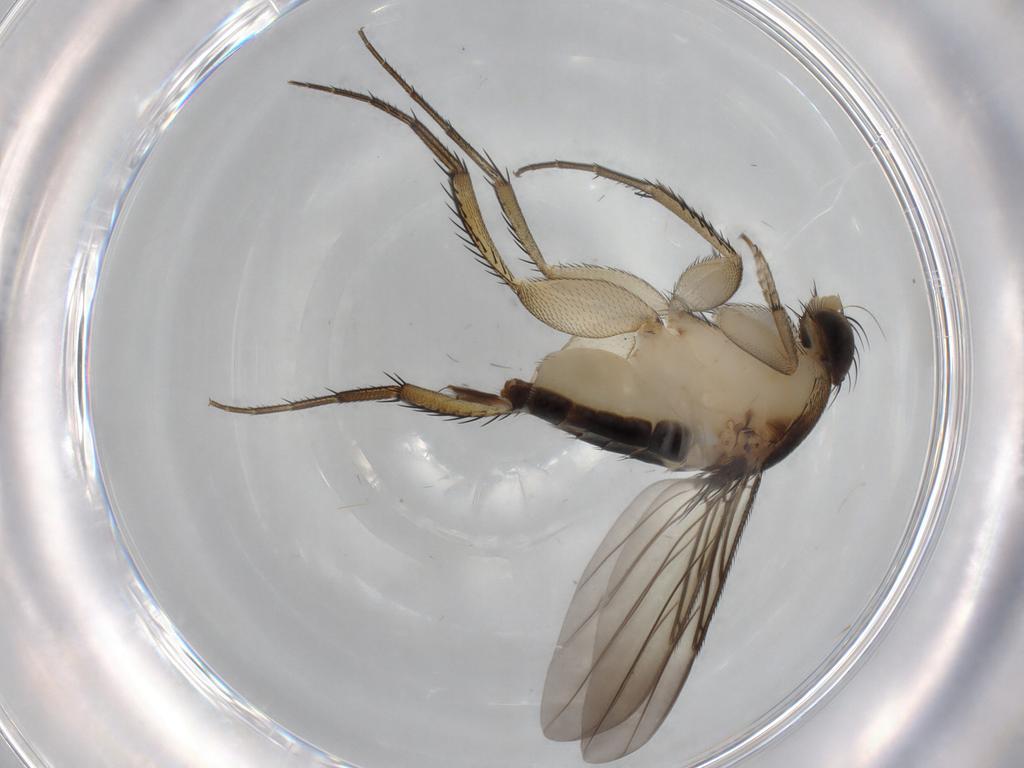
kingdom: Animalia
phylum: Arthropoda
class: Insecta
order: Diptera
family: Phoridae
